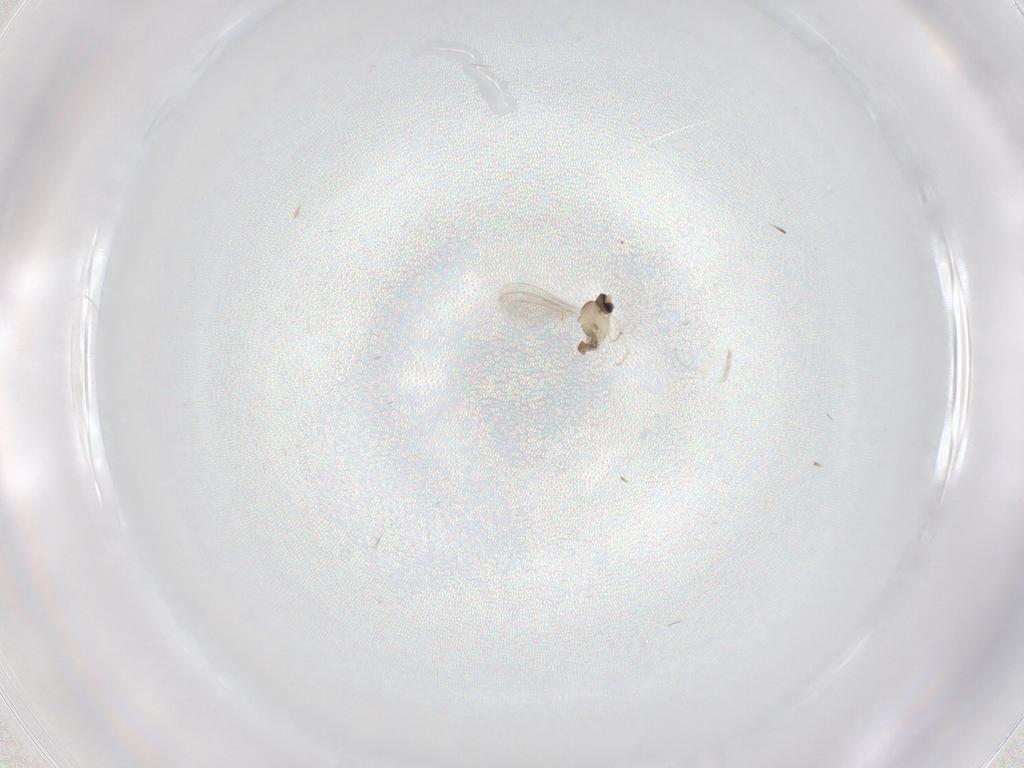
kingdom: Animalia
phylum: Arthropoda
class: Insecta
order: Diptera
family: Cecidomyiidae
